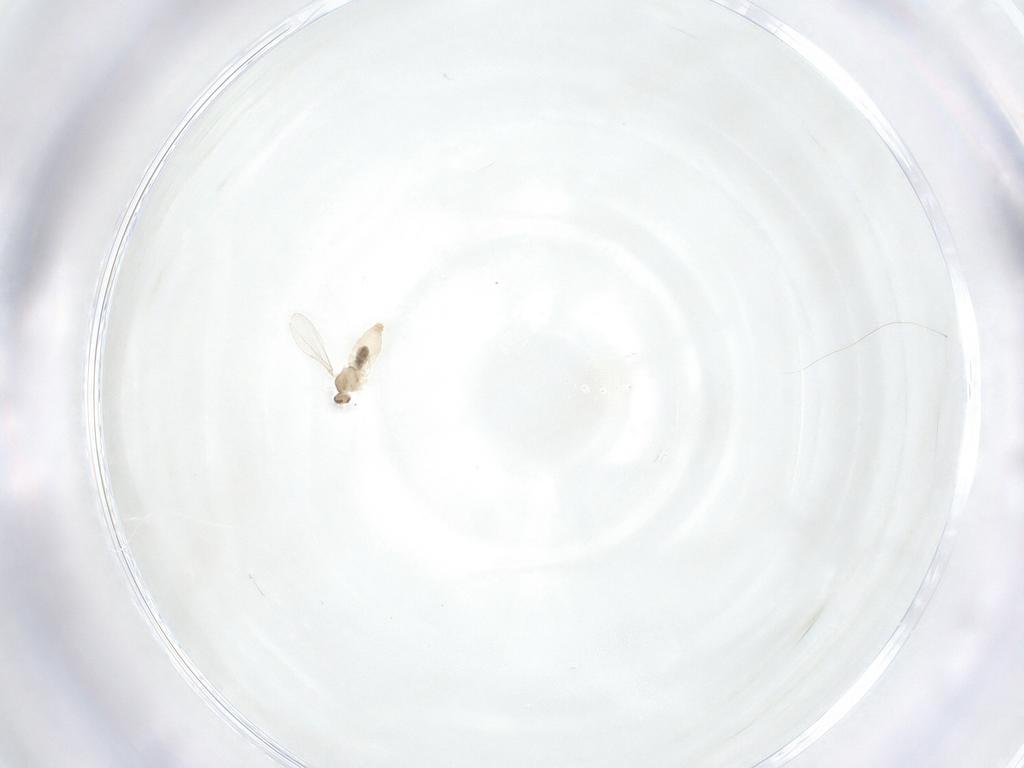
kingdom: Animalia
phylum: Arthropoda
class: Insecta
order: Diptera
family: Cecidomyiidae
